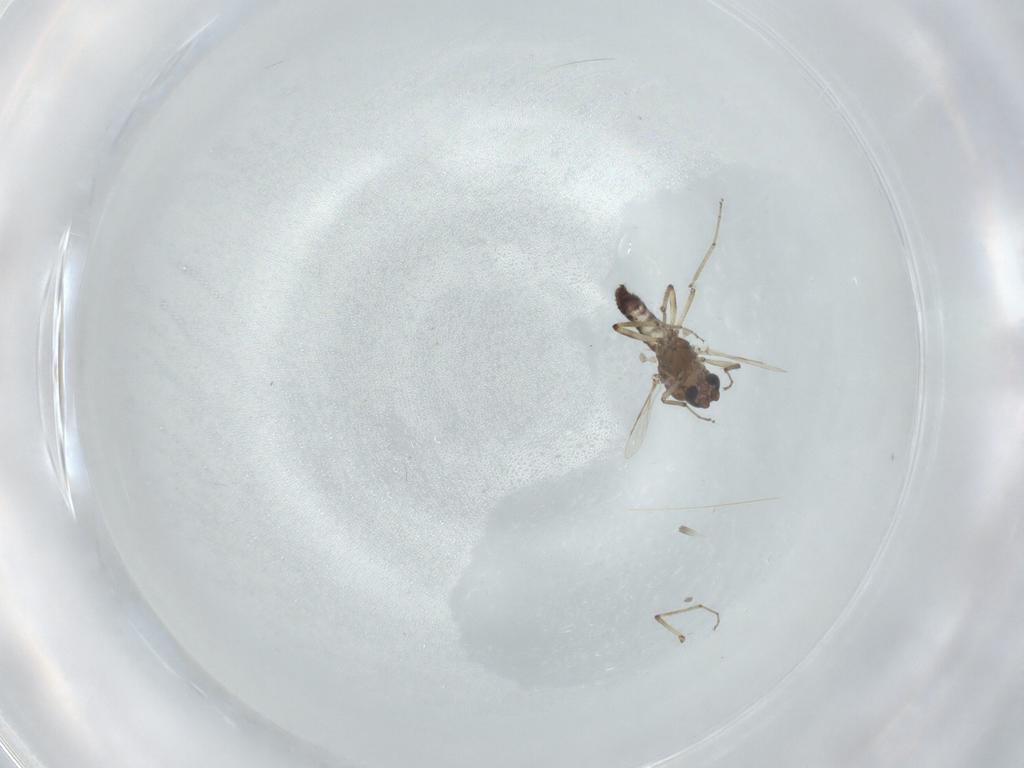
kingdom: Animalia
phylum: Arthropoda
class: Insecta
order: Diptera
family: Ceratopogonidae
